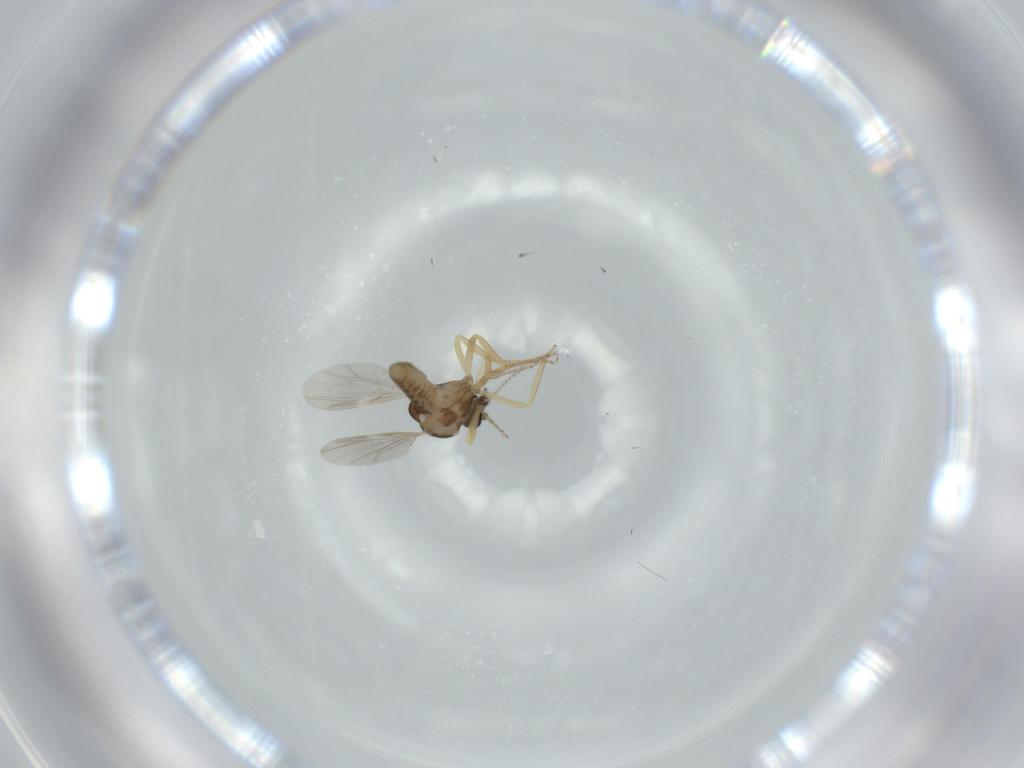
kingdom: Animalia
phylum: Arthropoda
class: Insecta
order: Diptera
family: Ceratopogonidae
